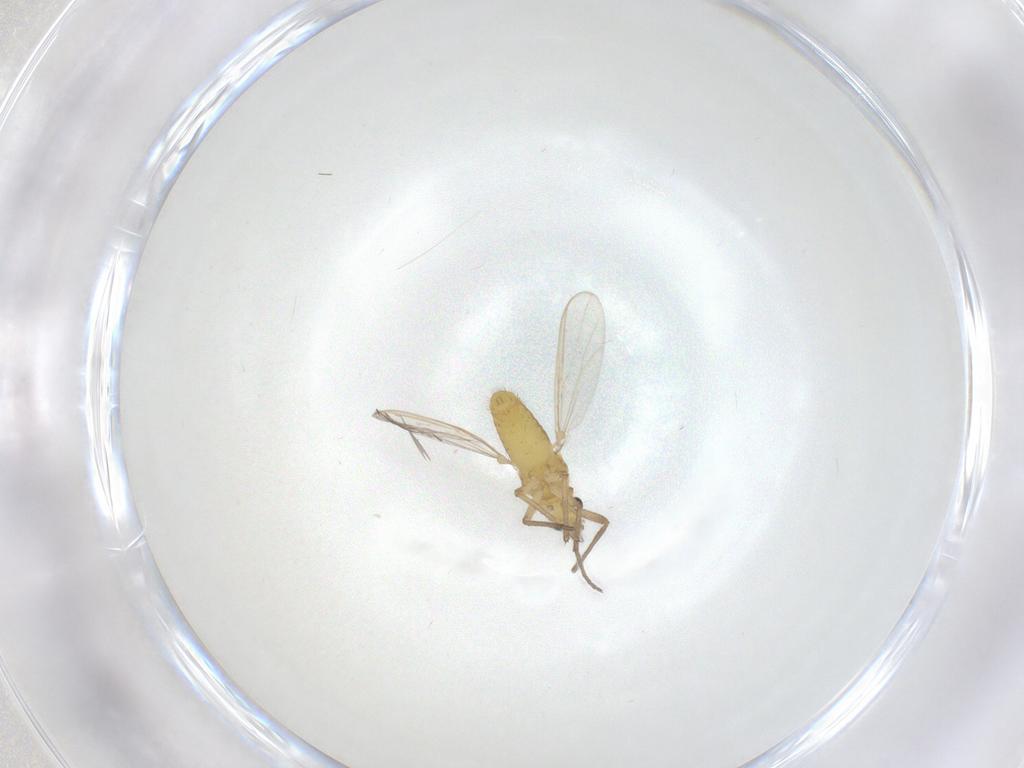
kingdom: Animalia
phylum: Arthropoda
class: Insecta
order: Diptera
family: Chironomidae
